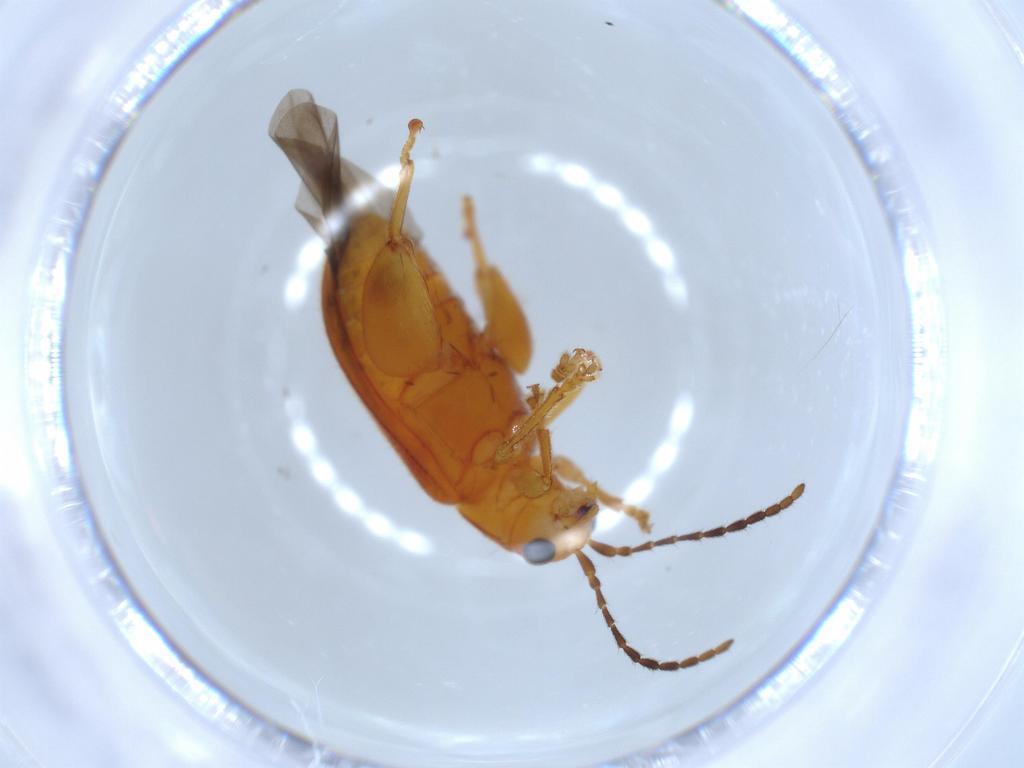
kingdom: Animalia
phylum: Arthropoda
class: Insecta
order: Coleoptera
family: Chrysomelidae
